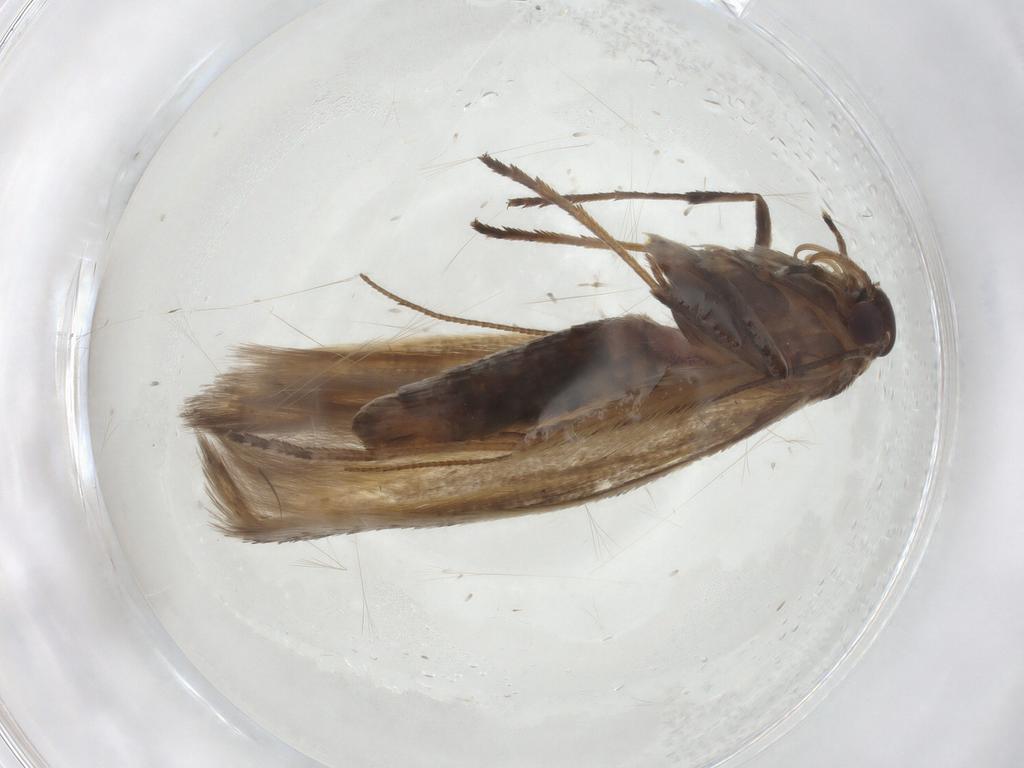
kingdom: Animalia
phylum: Arthropoda
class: Insecta
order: Lepidoptera
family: Scythrididae
